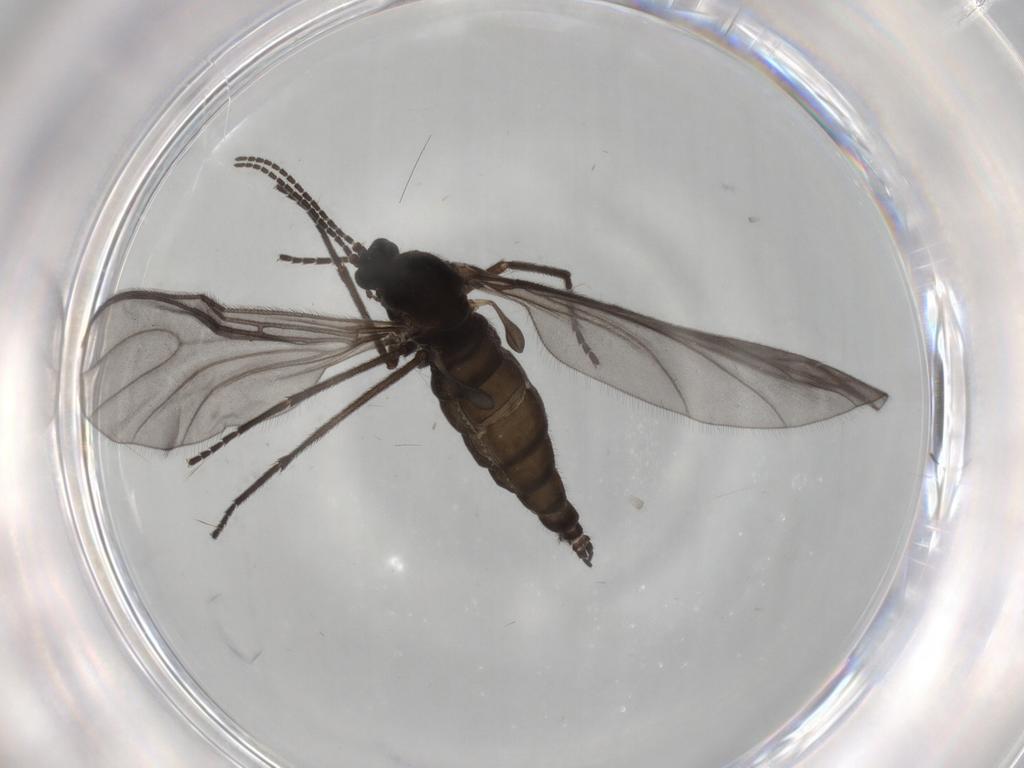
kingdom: Animalia
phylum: Arthropoda
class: Insecta
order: Diptera
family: Sciaridae
